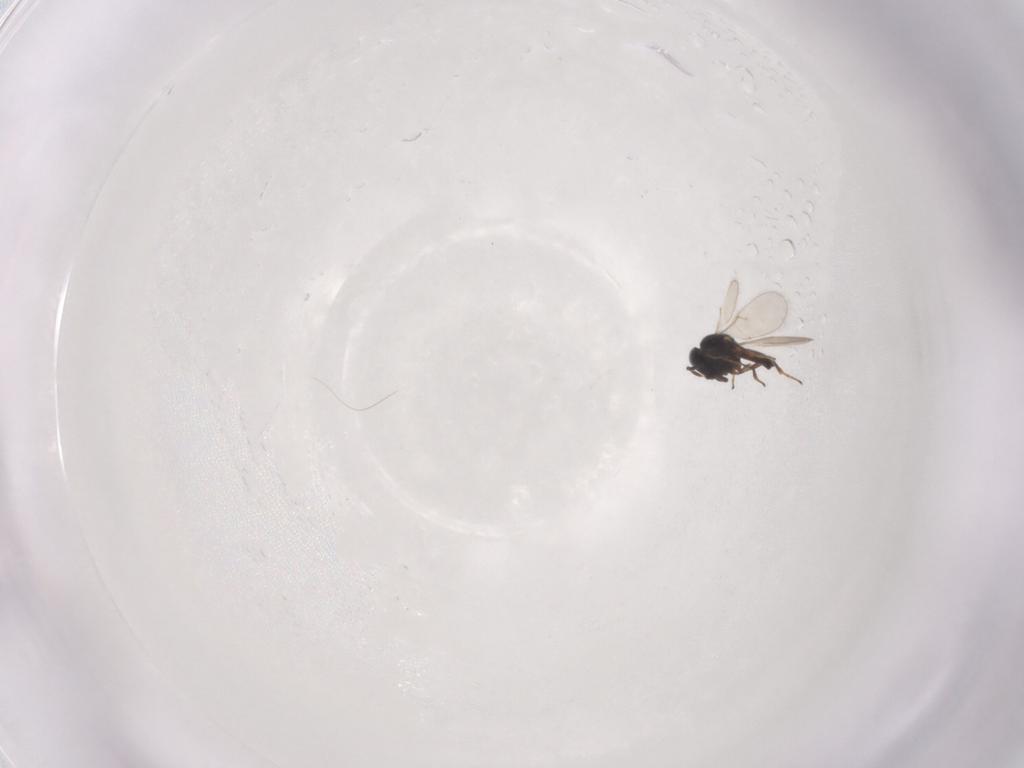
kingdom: Animalia
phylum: Arthropoda
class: Insecta
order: Hymenoptera
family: Scelionidae
